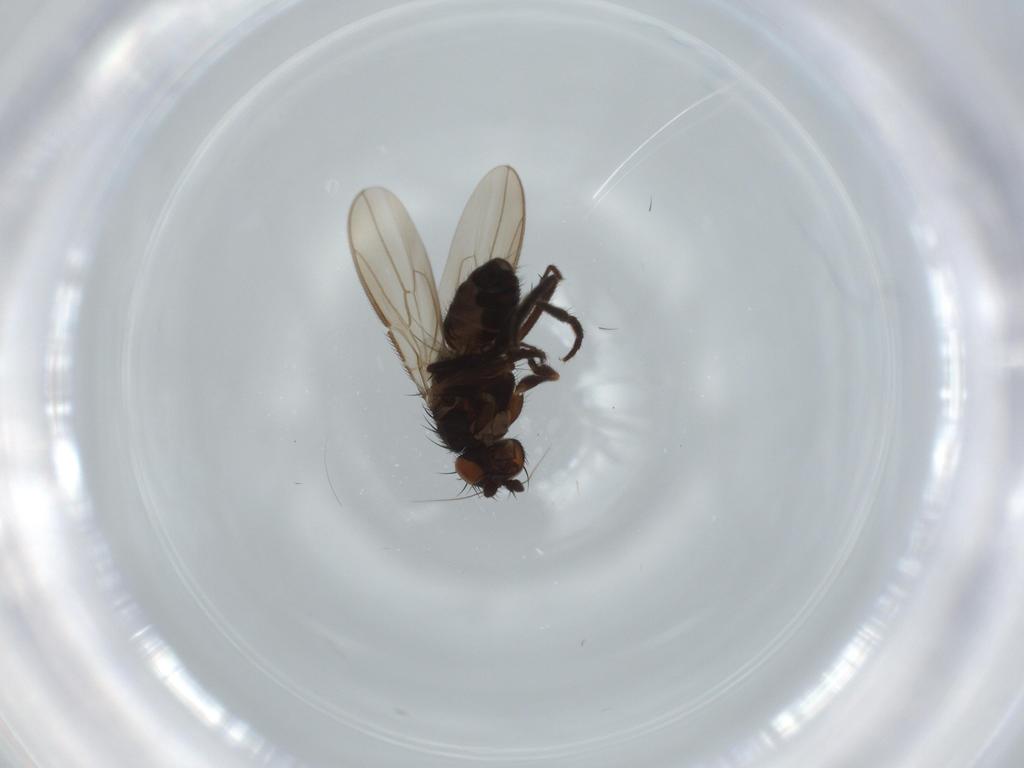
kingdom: Animalia
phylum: Arthropoda
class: Insecta
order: Diptera
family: Sphaeroceridae
